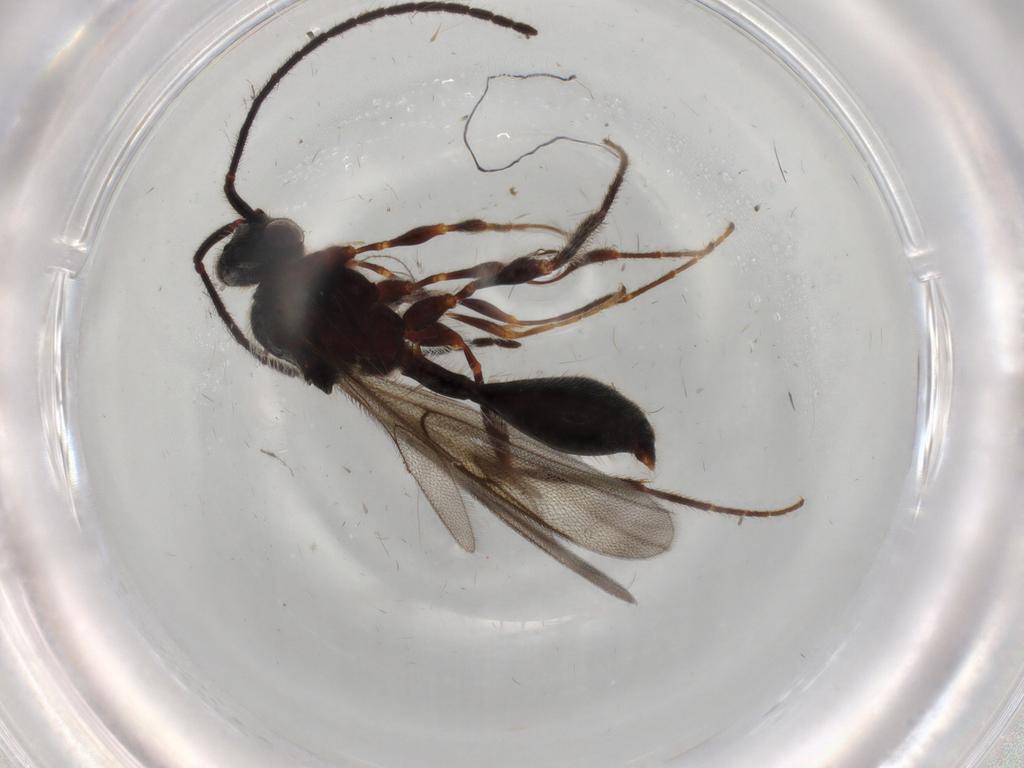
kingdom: Animalia
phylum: Arthropoda
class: Insecta
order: Hymenoptera
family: Formicidae
